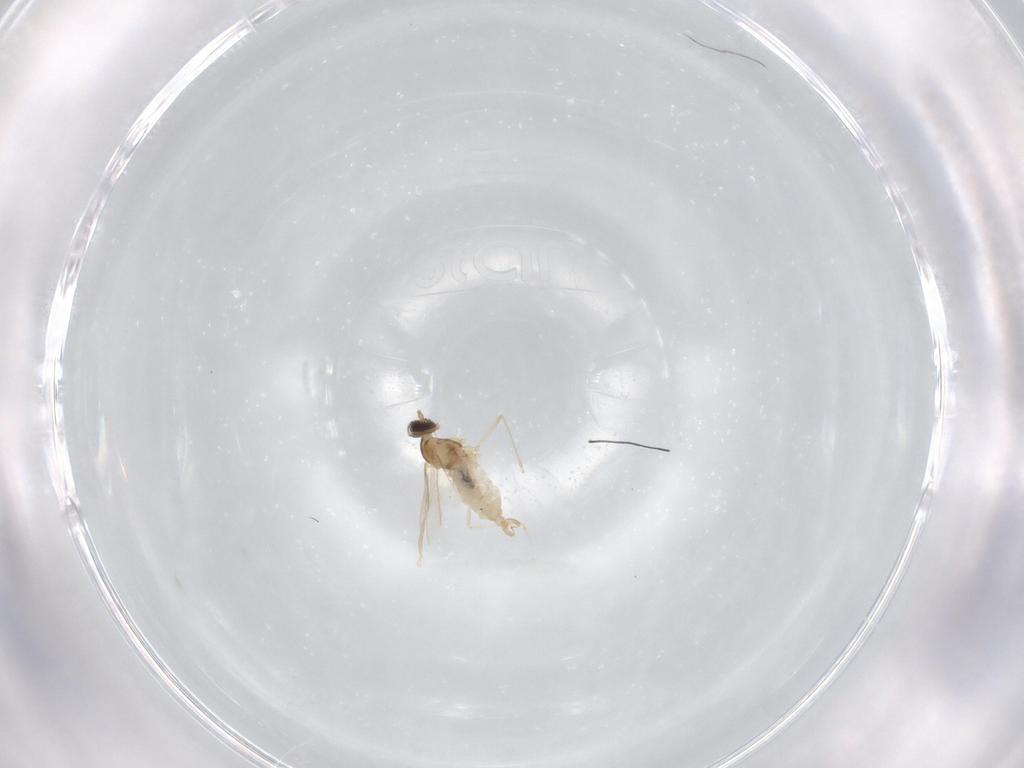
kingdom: Animalia
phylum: Arthropoda
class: Insecta
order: Diptera
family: Cecidomyiidae
